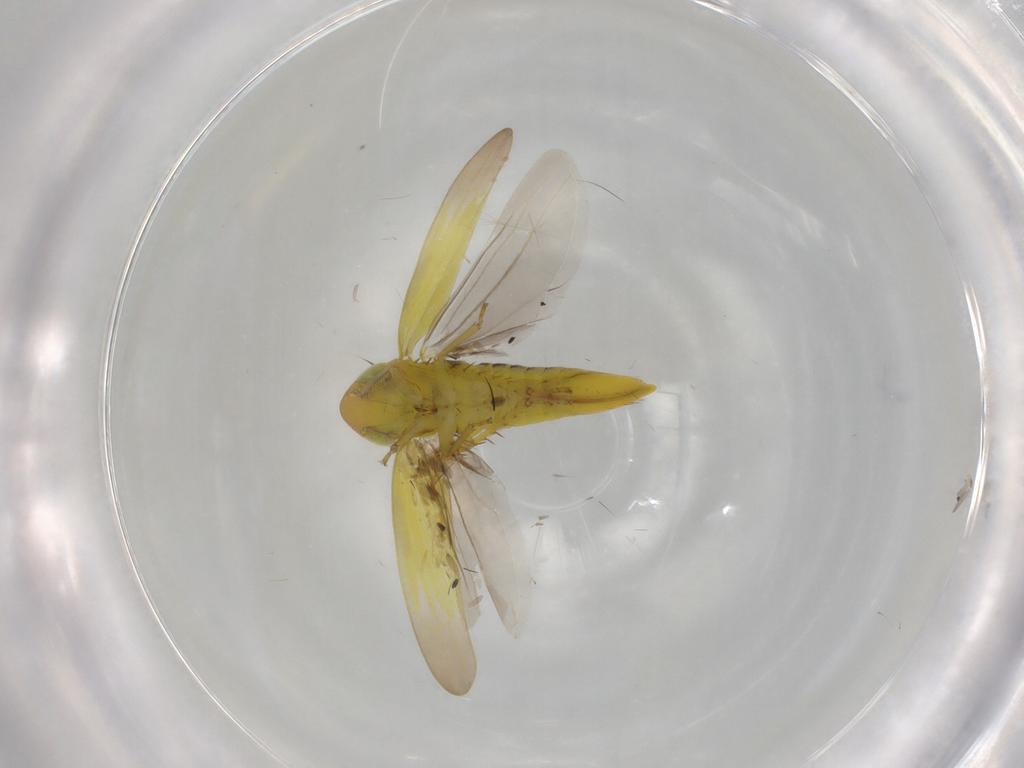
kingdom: Animalia
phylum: Arthropoda
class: Insecta
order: Hemiptera
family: Cicadellidae
